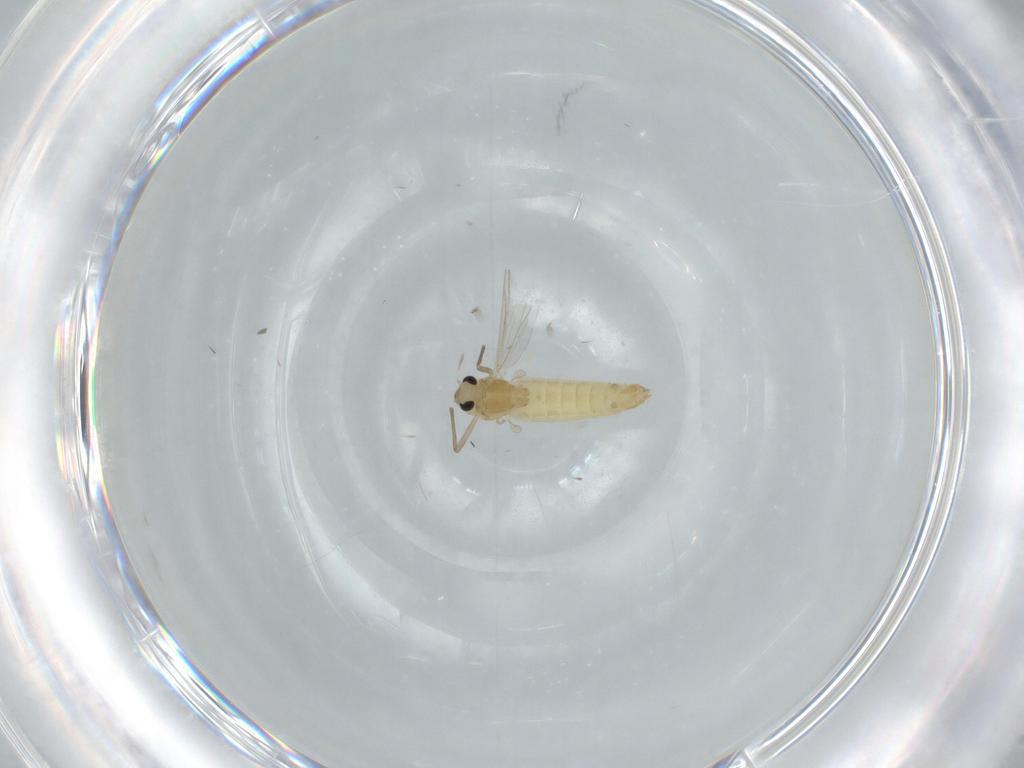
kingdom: Animalia
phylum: Arthropoda
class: Insecta
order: Diptera
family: Chironomidae
